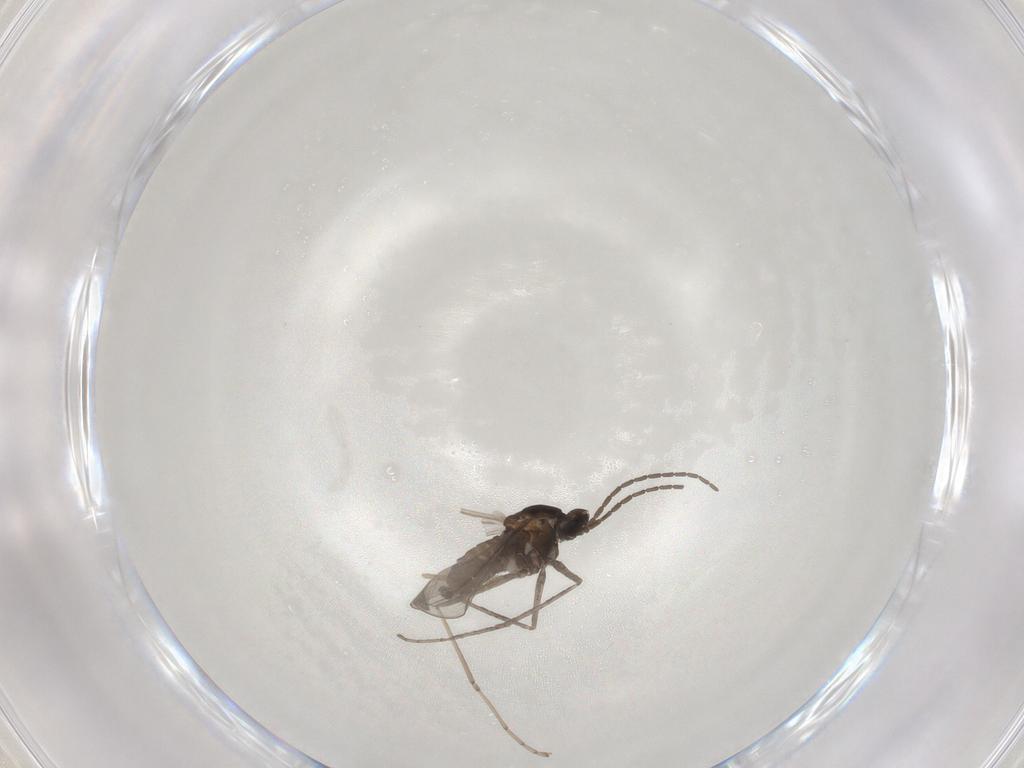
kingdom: Animalia
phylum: Arthropoda
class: Insecta
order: Diptera
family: Cecidomyiidae
